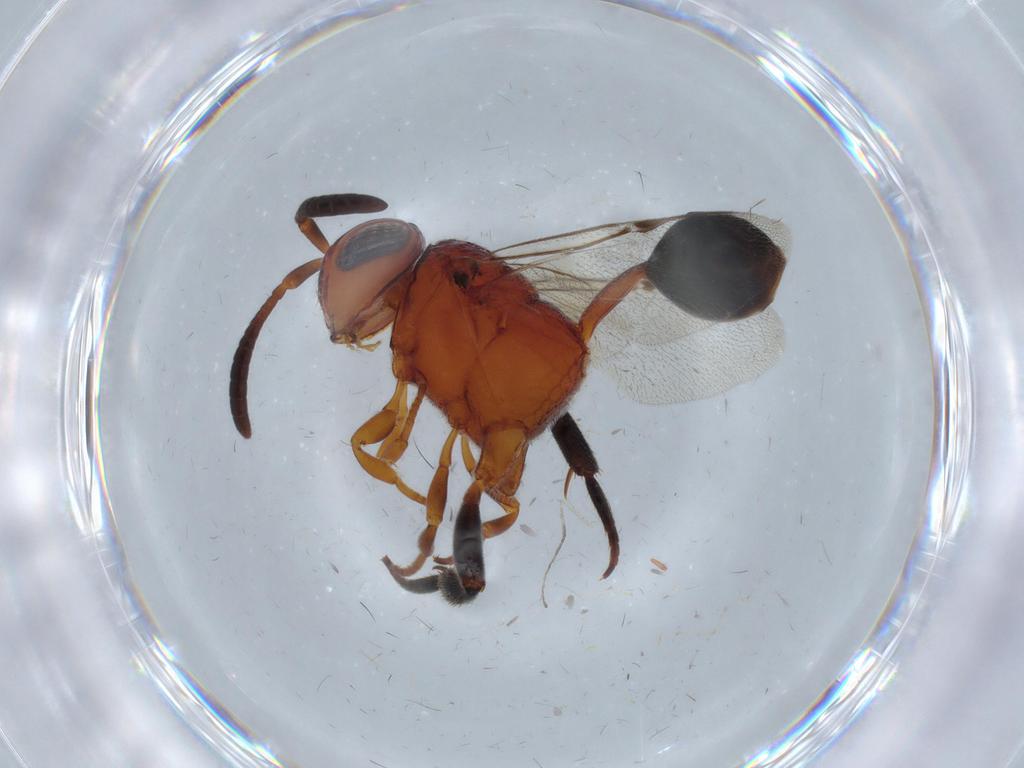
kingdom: Animalia
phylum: Arthropoda
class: Insecta
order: Hymenoptera
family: Evaniidae
